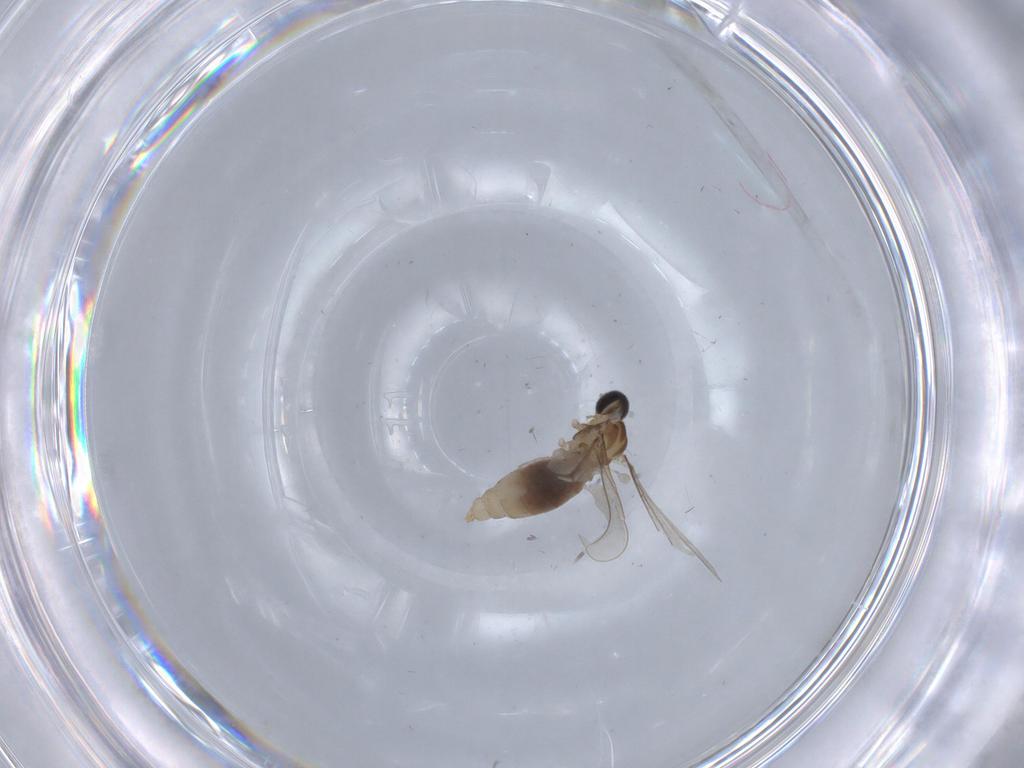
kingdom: Animalia
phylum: Arthropoda
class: Insecta
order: Diptera
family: Cecidomyiidae
